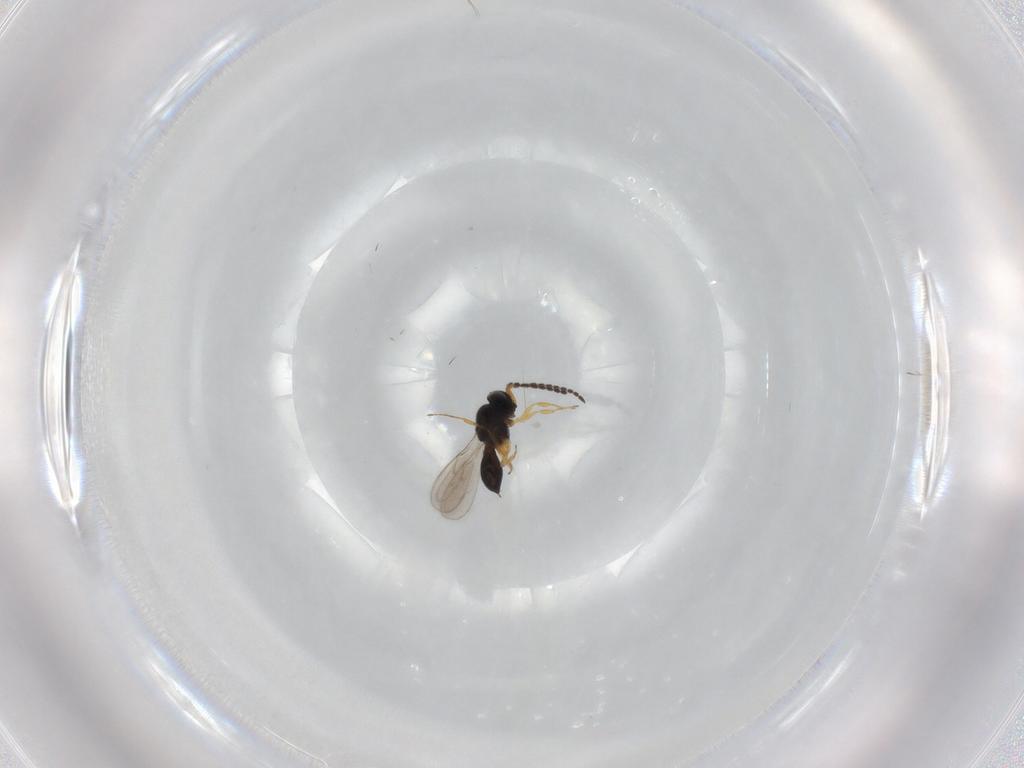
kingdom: Animalia
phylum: Arthropoda
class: Insecta
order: Hymenoptera
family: Scelionidae
